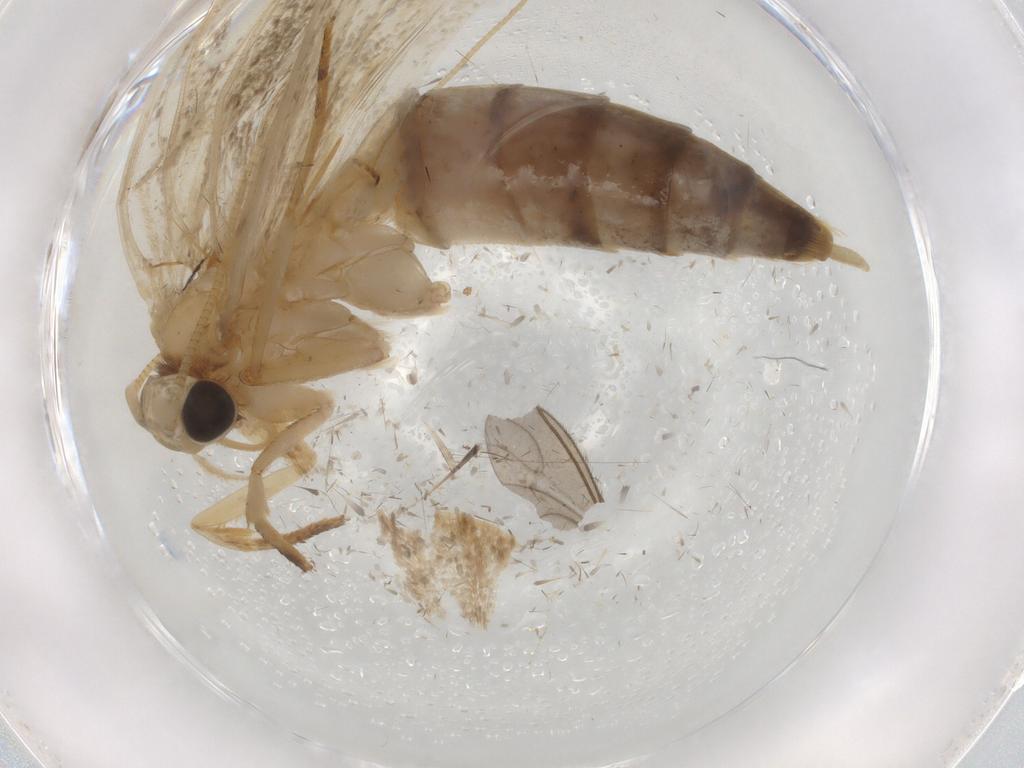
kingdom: Animalia
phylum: Arthropoda
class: Insecta
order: Lepidoptera
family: Tineidae
